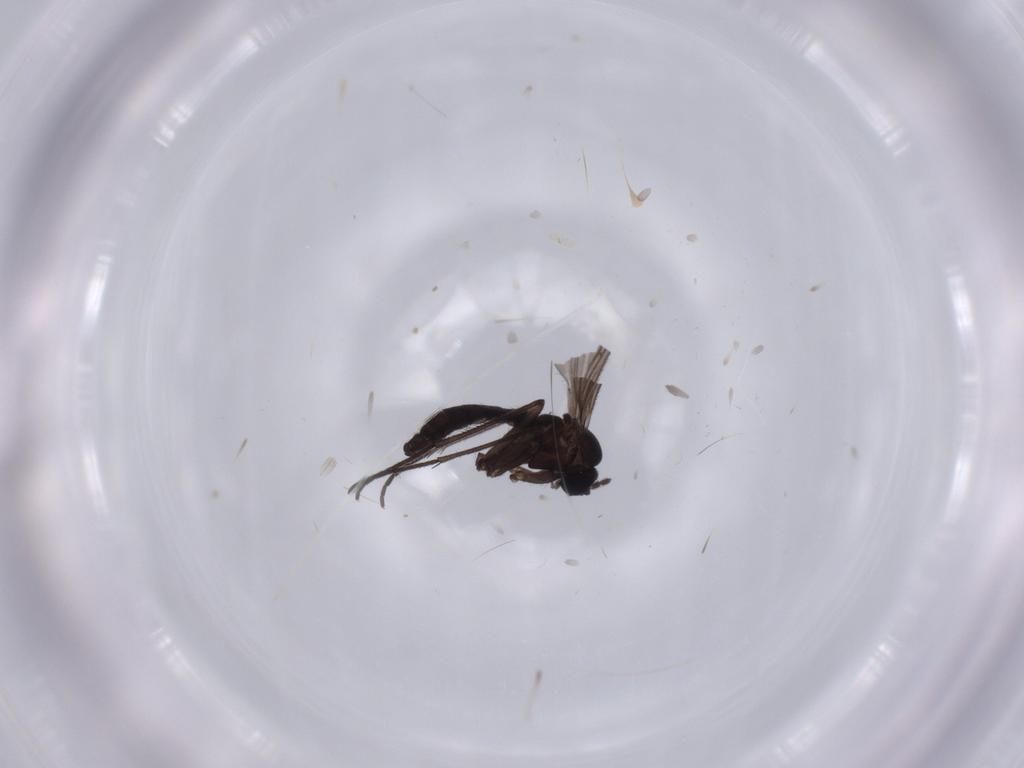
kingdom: Animalia
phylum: Arthropoda
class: Insecta
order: Diptera
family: Sciaridae
